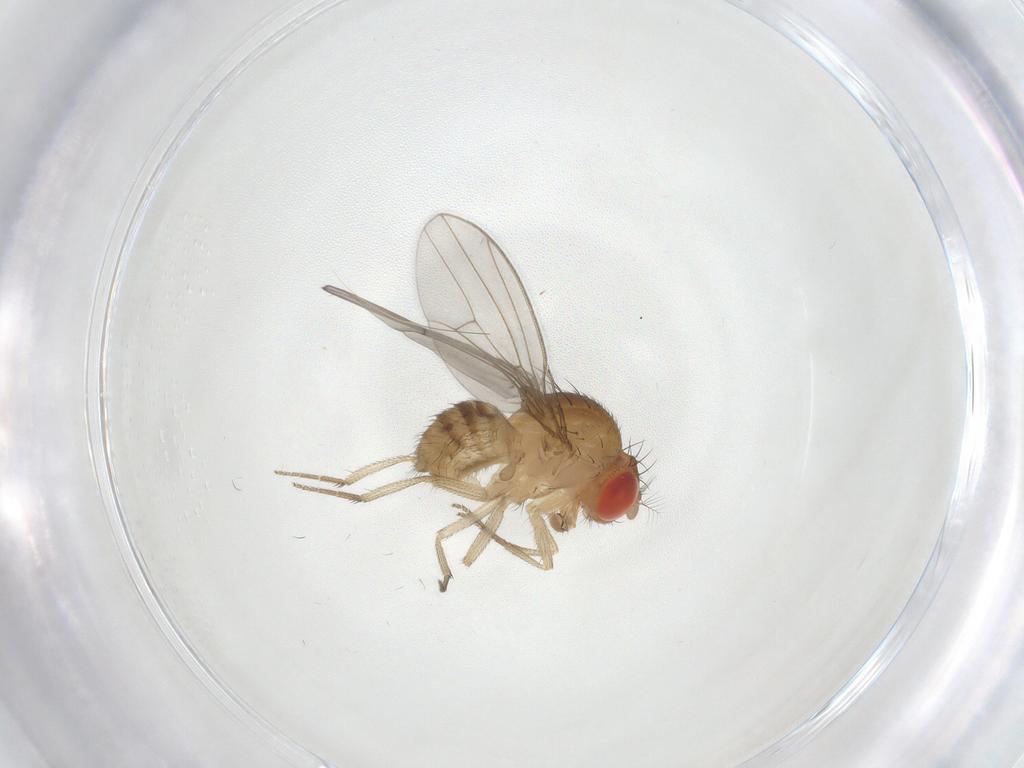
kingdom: Animalia
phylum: Arthropoda
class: Insecta
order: Diptera
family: Drosophilidae
